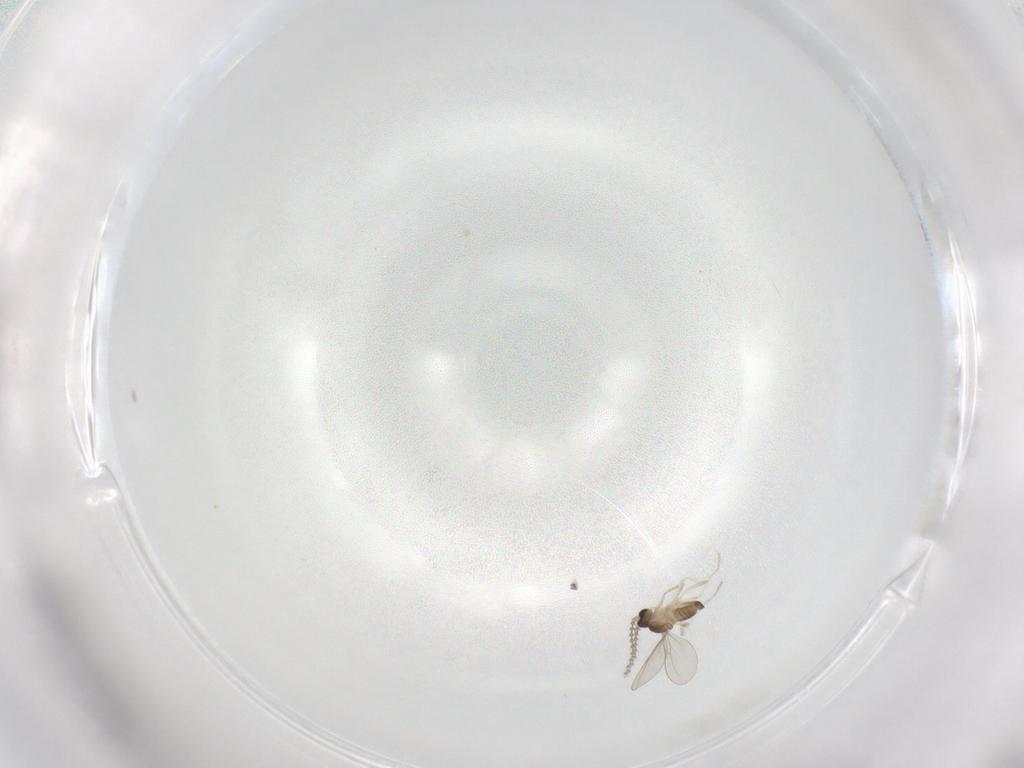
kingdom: Animalia
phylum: Arthropoda
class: Insecta
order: Diptera
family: Cecidomyiidae
